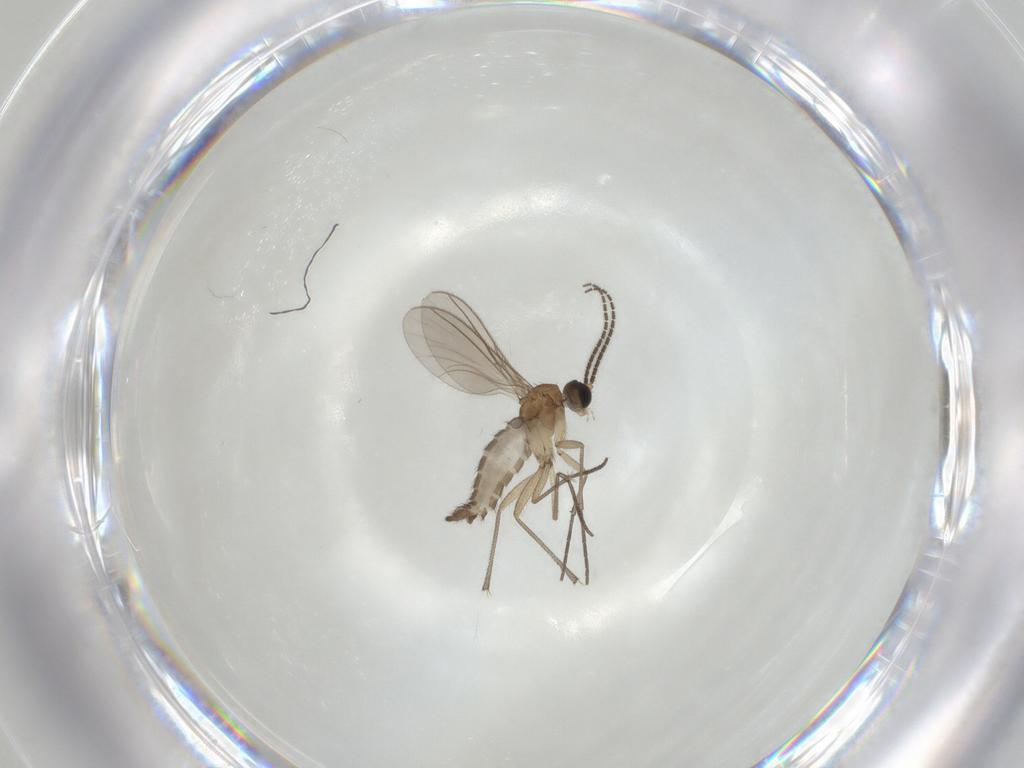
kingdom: Animalia
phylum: Arthropoda
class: Insecta
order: Diptera
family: Sciaridae
